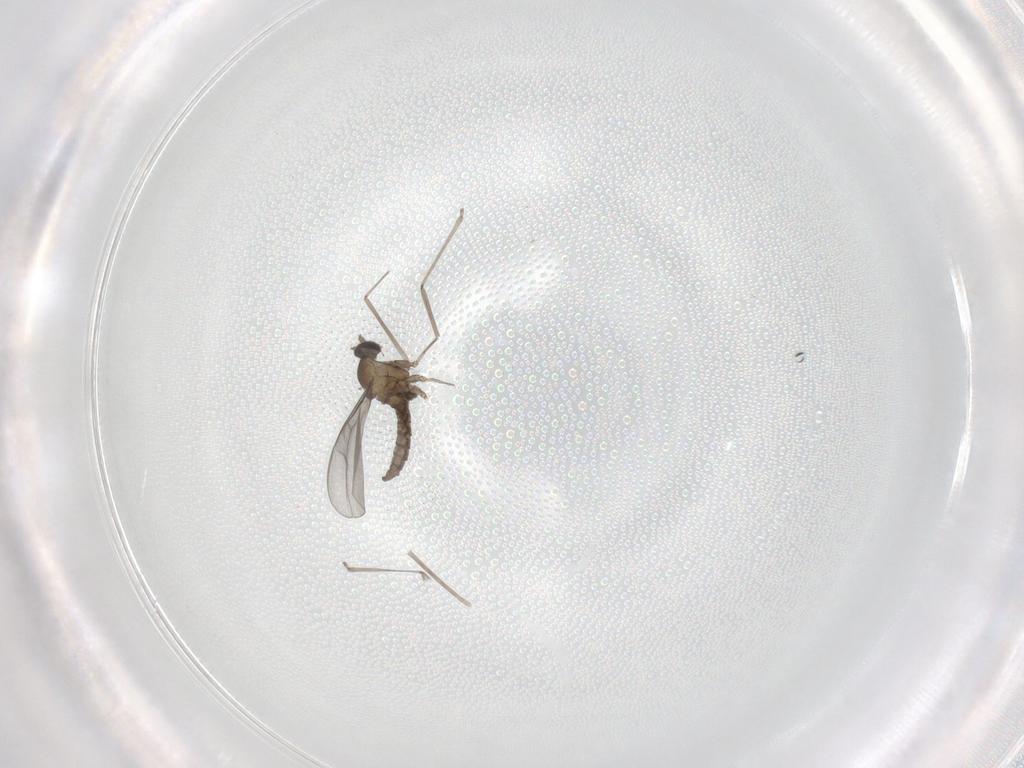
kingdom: Animalia
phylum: Arthropoda
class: Insecta
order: Diptera
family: Cecidomyiidae
